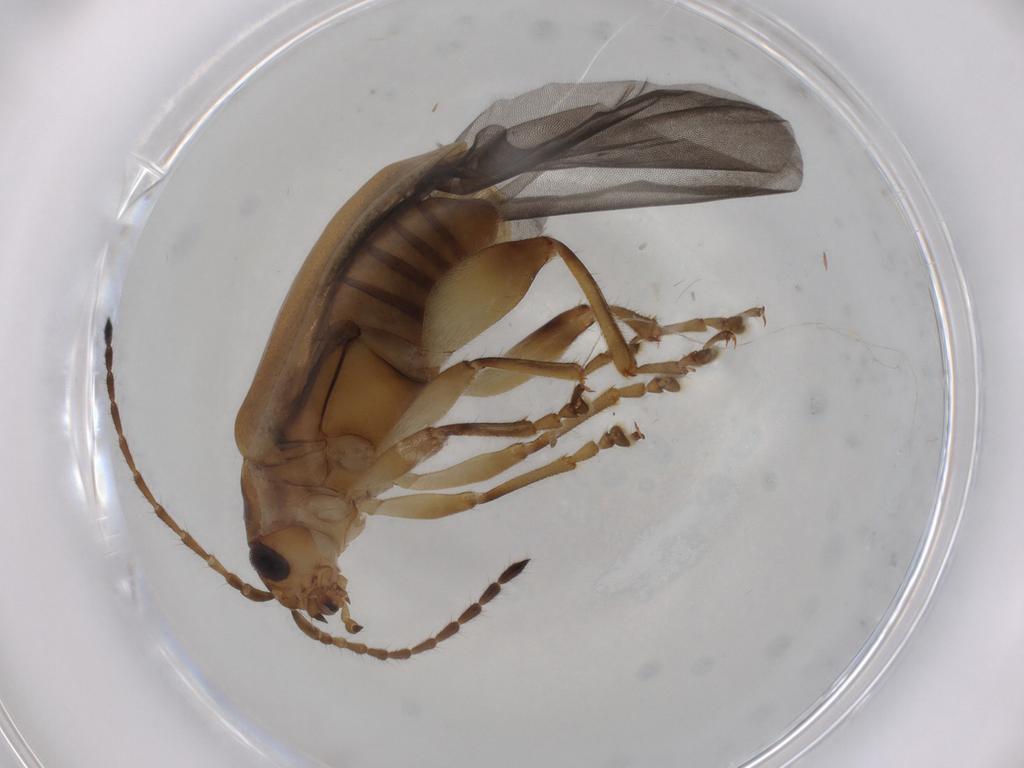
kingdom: Animalia
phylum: Arthropoda
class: Insecta
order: Coleoptera
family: Chrysomelidae
